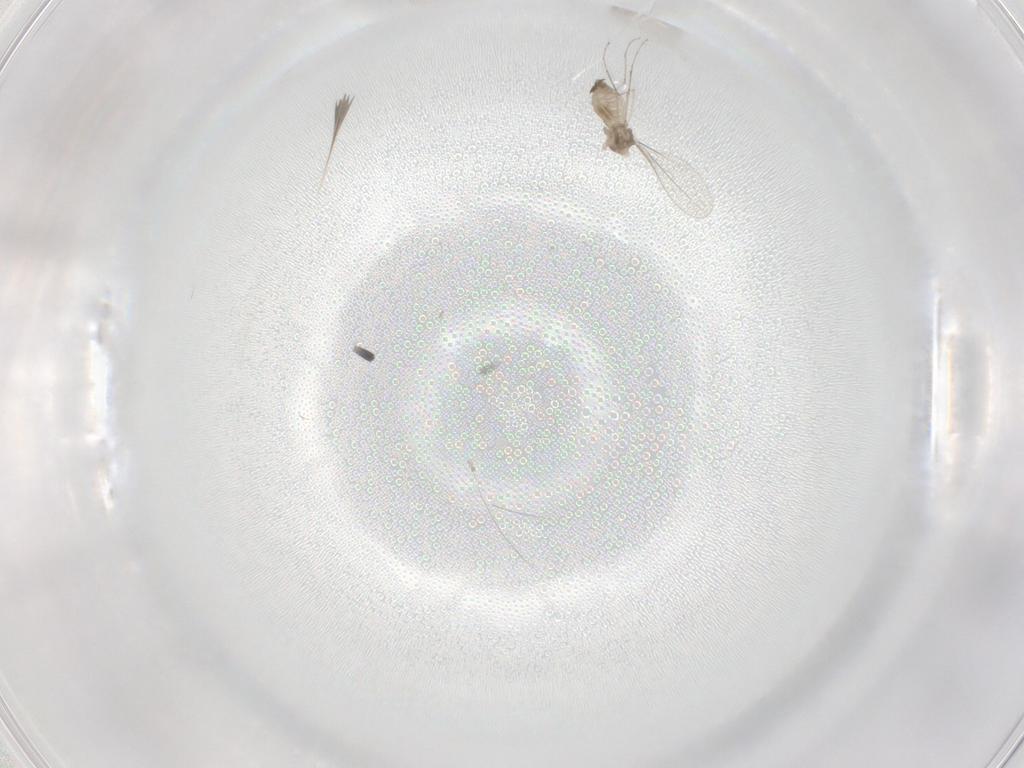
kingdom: Animalia
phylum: Arthropoda
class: Insecta
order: Diptera
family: Cecidomyiidae
